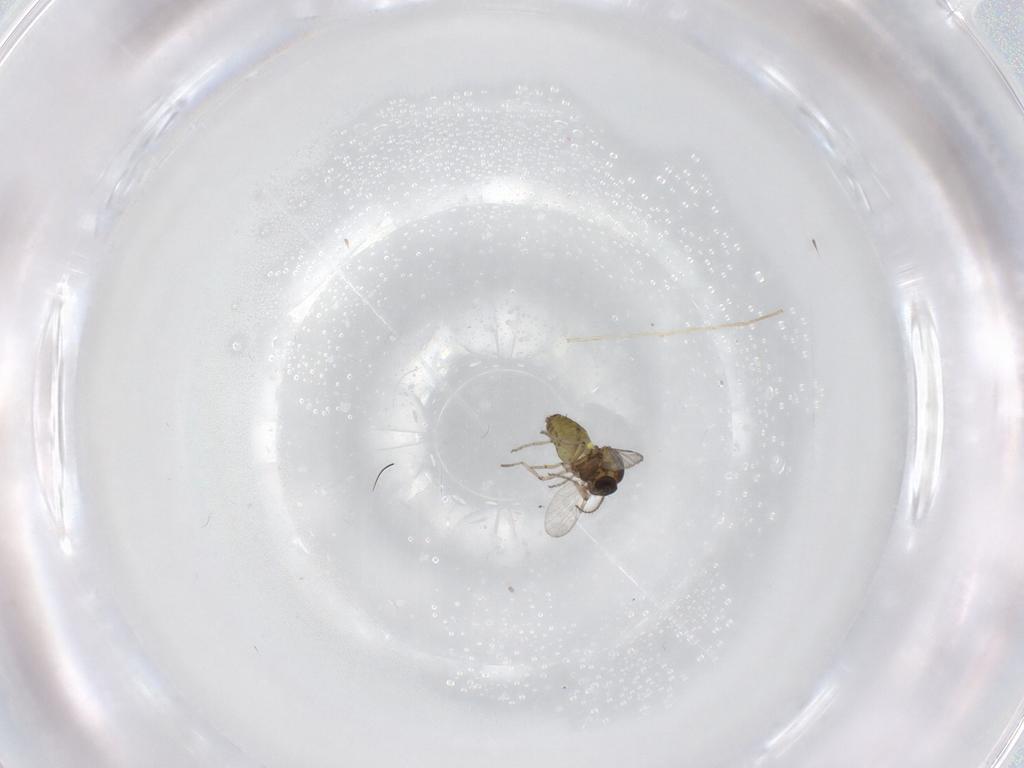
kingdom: Animalia
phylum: Arthropoda
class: Insecta
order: Diptera
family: Ceratopogonidae
